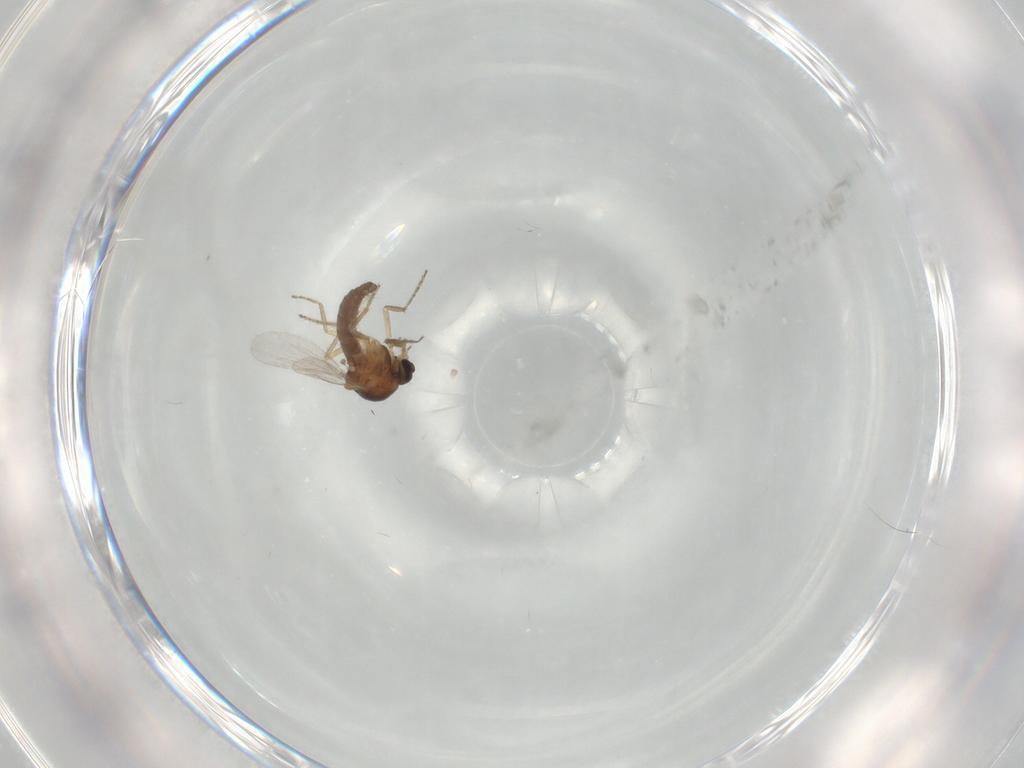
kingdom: Animalia
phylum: Arthropoda
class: Insecta
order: Diptera
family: Ceratopogonidae
